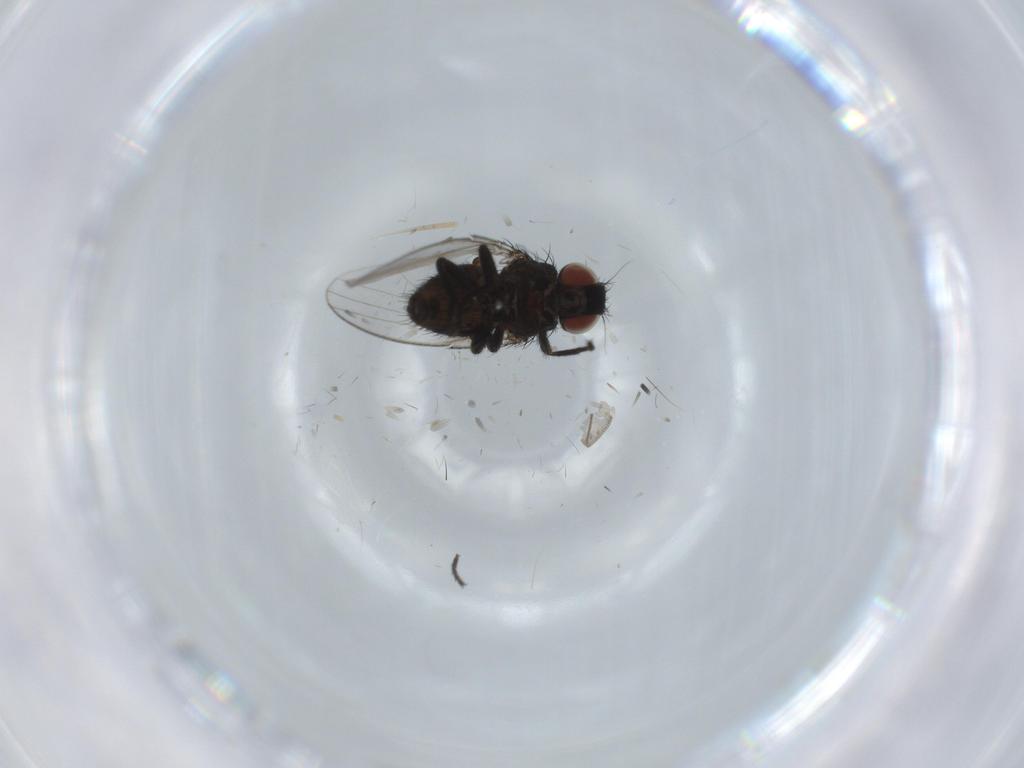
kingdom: Animalia
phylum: Arthropoda
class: Insecta
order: Diptera
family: Milichiidae
